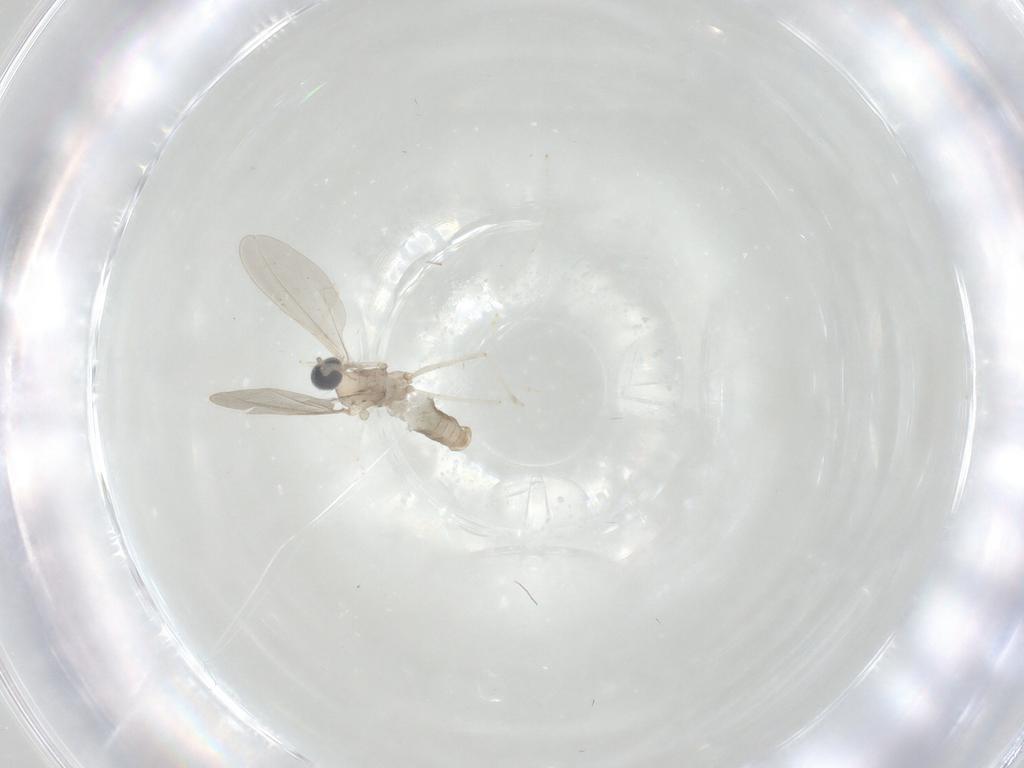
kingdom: Animalia
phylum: Arthropoda
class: Insecta
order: Diptera
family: Cecidomyiidae
